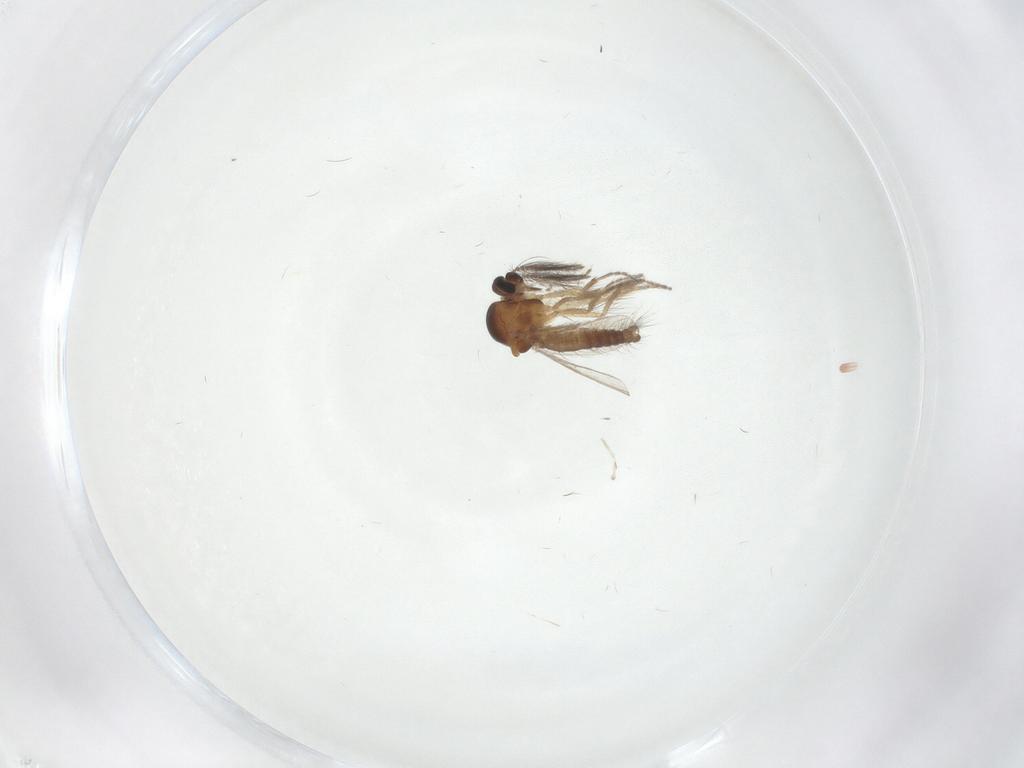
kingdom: Animalia
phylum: Arthropoda
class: Insecta
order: Diptera
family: Ceratopogonidae
